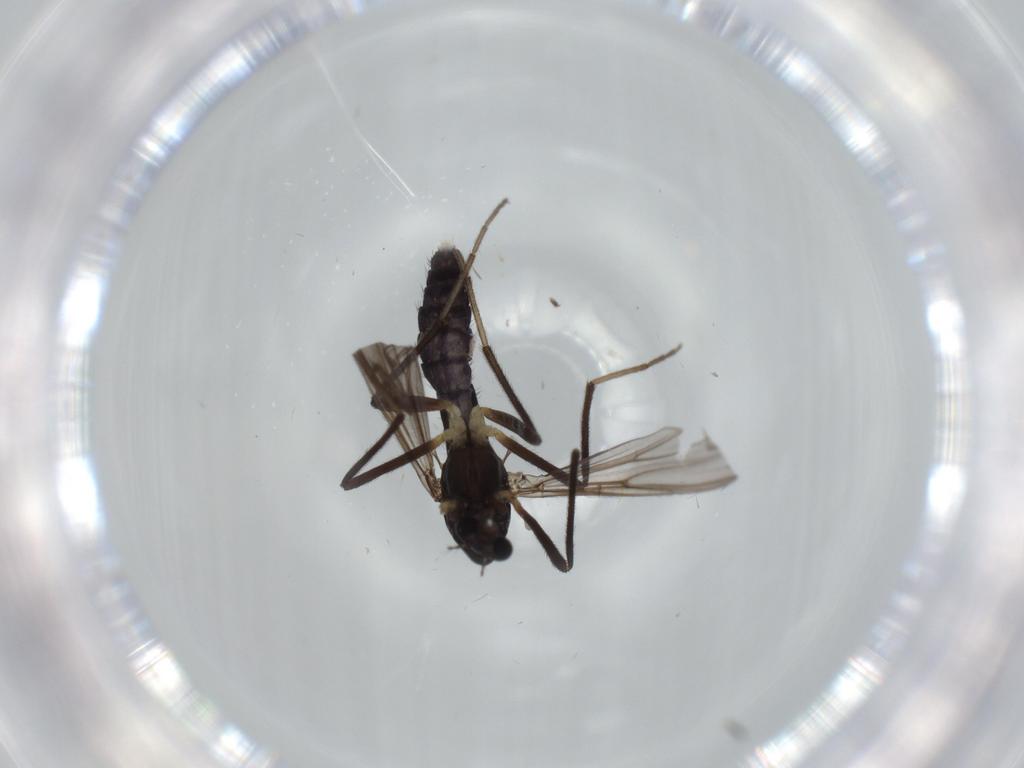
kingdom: Animalia
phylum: Arthropoda
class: Insecta
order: Diptera
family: Chironomidae
